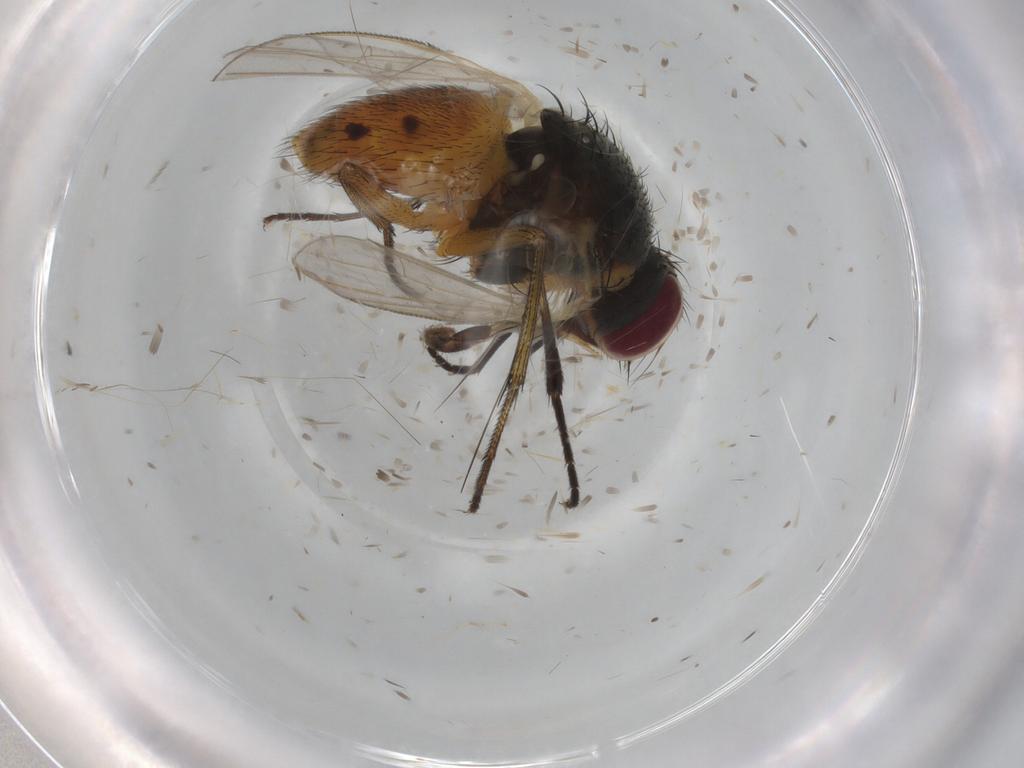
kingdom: Animalia
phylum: Arthropoda
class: Insecta
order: Diptera
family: Muscidae
